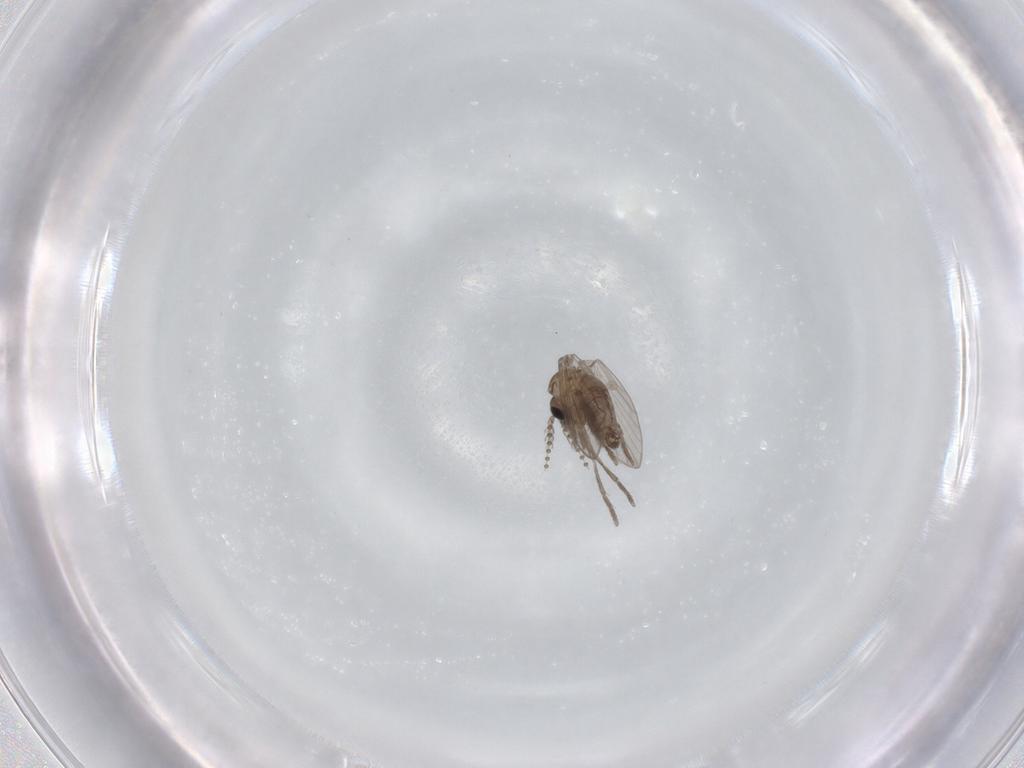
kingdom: Animalia
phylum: Arthropoda
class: Insecta
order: Diptera
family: Psychodidae
